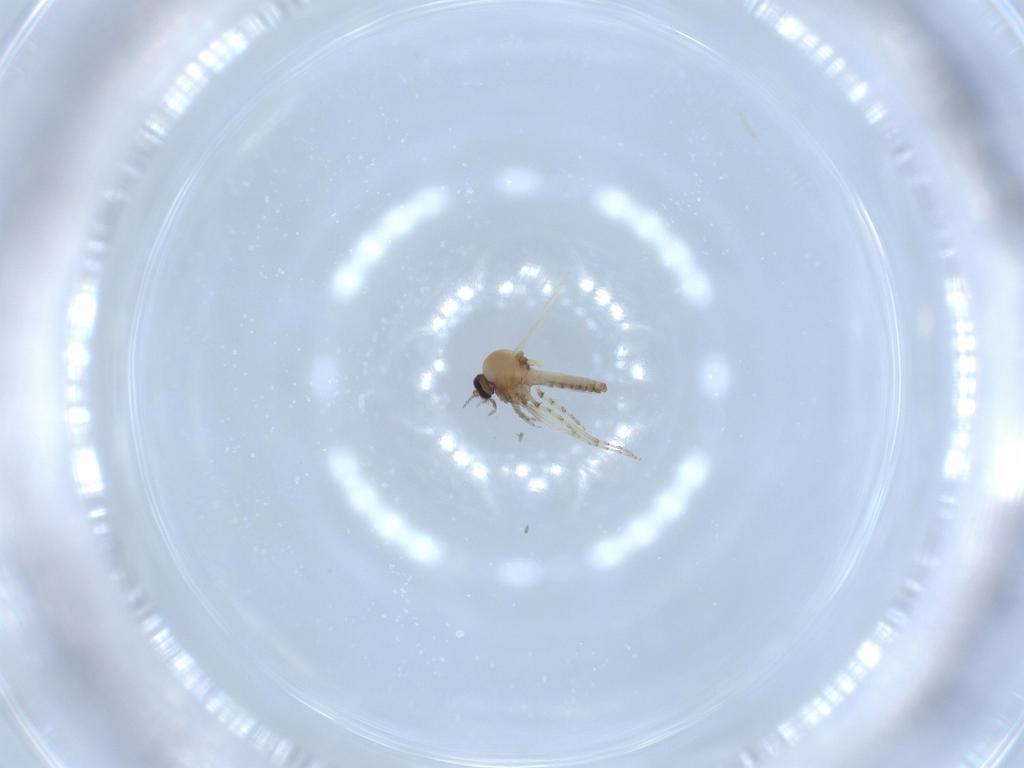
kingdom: Animalia
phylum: Arthropoda
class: Insecta
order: Diptera
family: Ceratopogonidae
